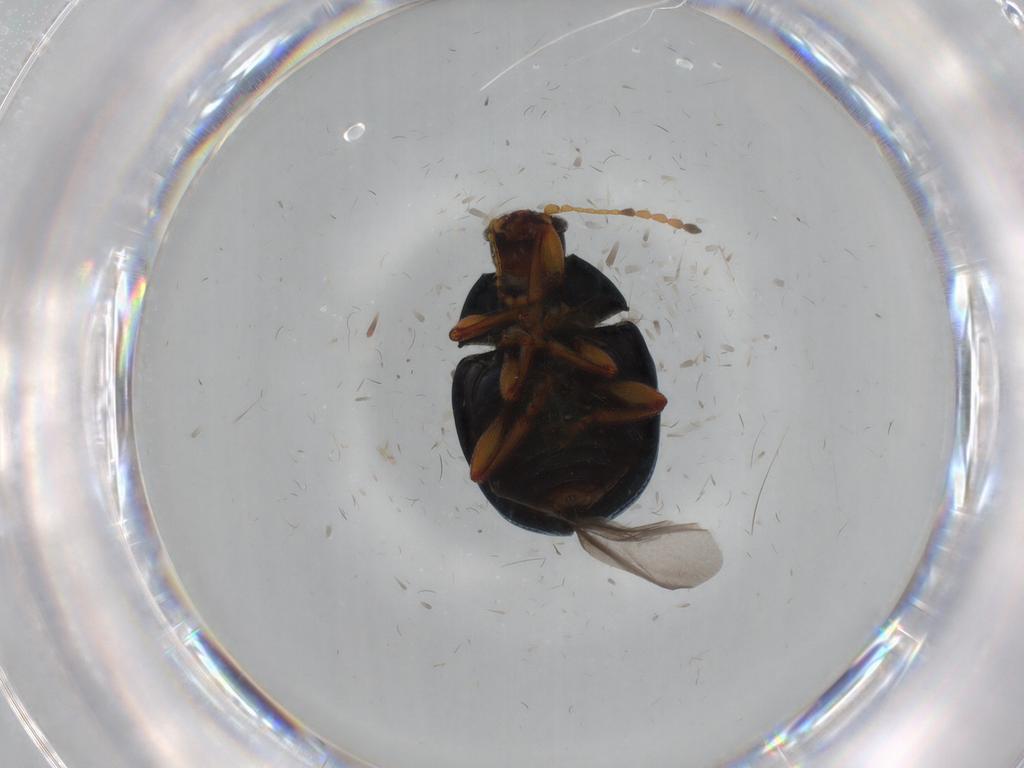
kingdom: Animalia
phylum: Arthropoda
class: Insecta
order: Coleoptera
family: Chrysomelidae
